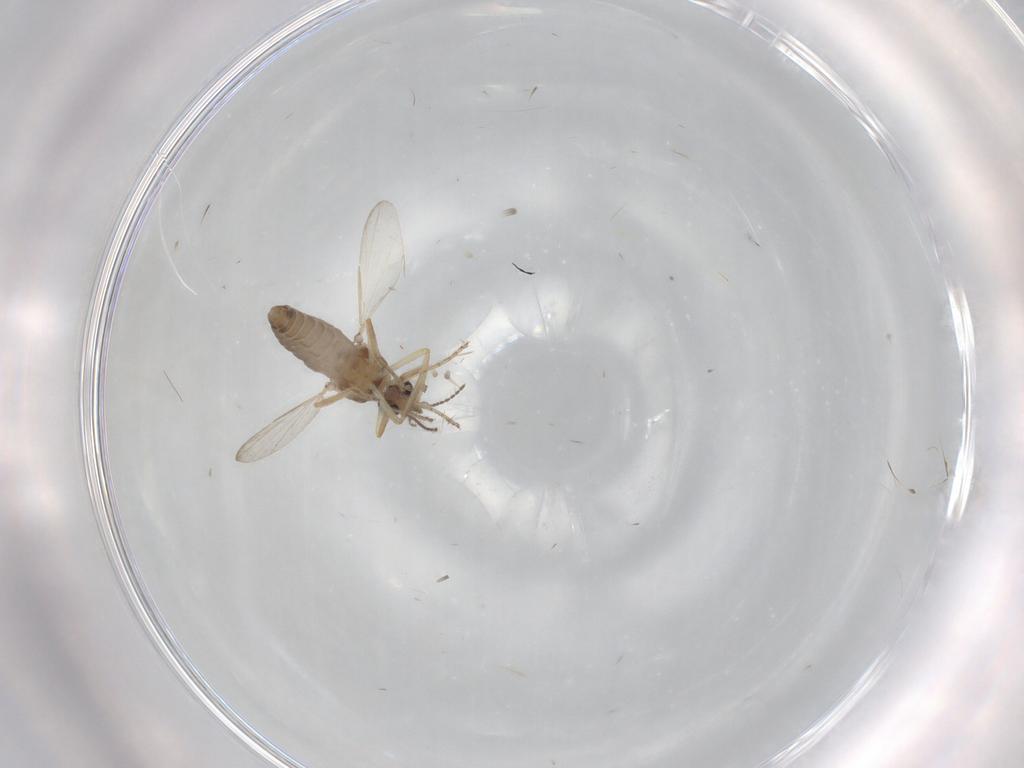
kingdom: Animalia
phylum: Arthropoda
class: Insecta
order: Diptera
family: Ceratopogonidae
